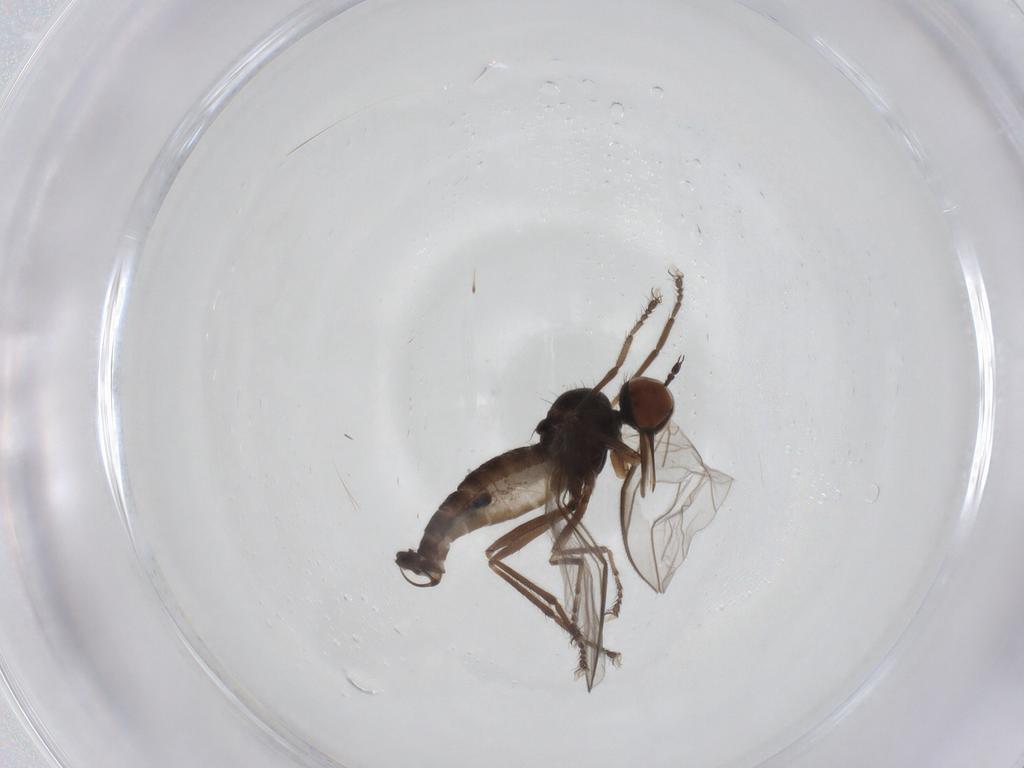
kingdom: Animalia
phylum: Arthropoda
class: Insecta
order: Diptera
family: Empididae
